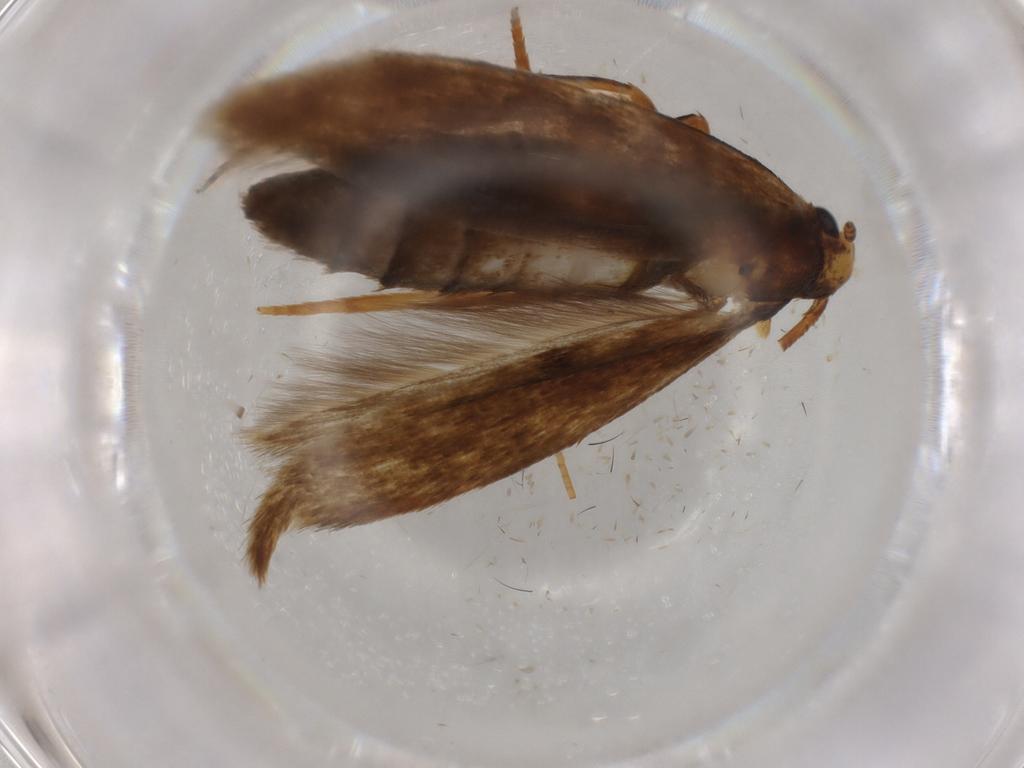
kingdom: Animalia
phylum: Arthropoda
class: Insecta
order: Lepidoptera
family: Tineidae
